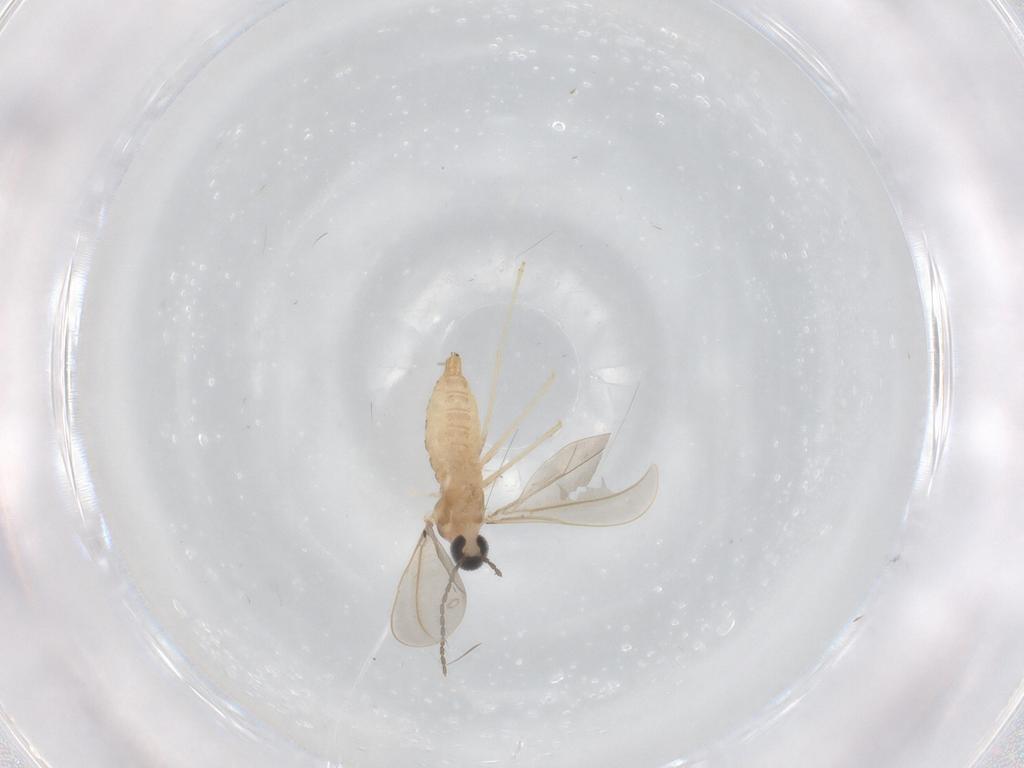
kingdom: Animalia
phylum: Arthropoda
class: Insecta
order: Diptera
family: Cecidomyiidae
